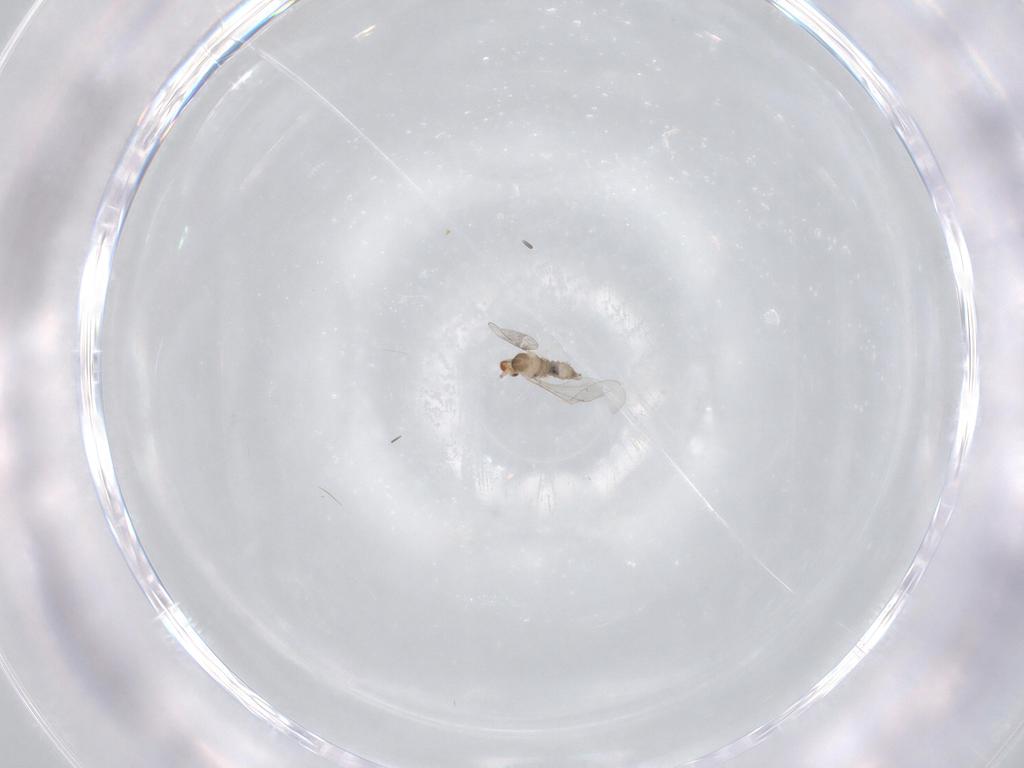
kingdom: Animalia
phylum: Arthropoda
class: Insecta
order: Diptera
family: Cecidomyiidae
